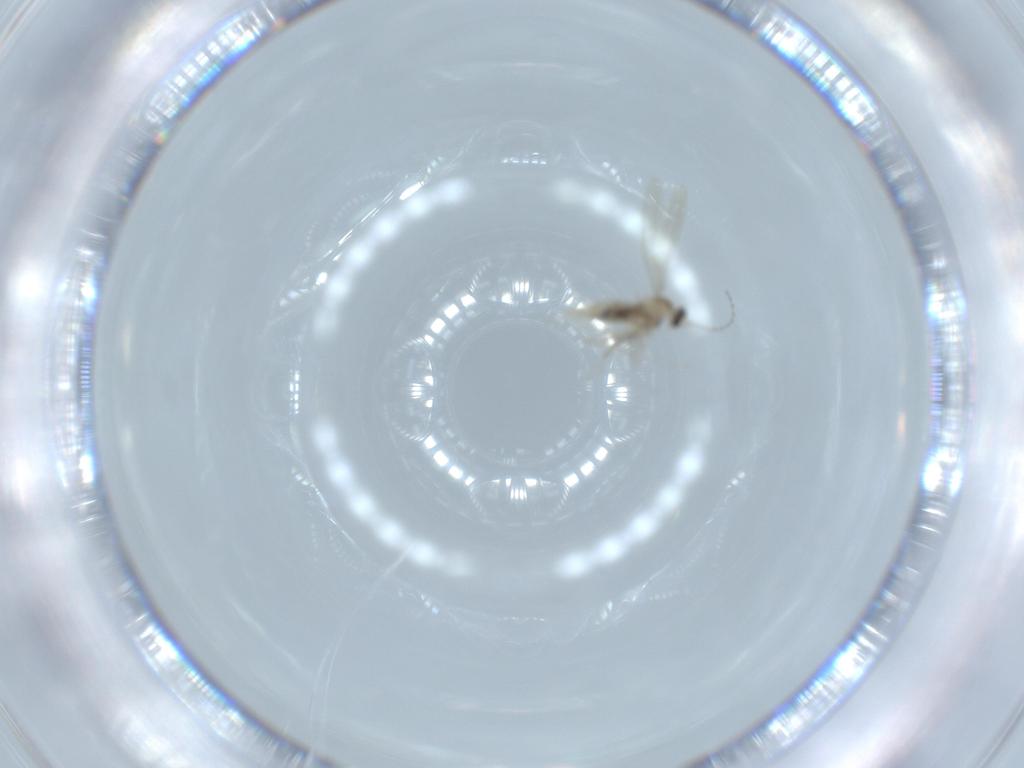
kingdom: Animalia
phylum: Arthropoda
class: Insecta
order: Diptera
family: Cecidomyiidae
